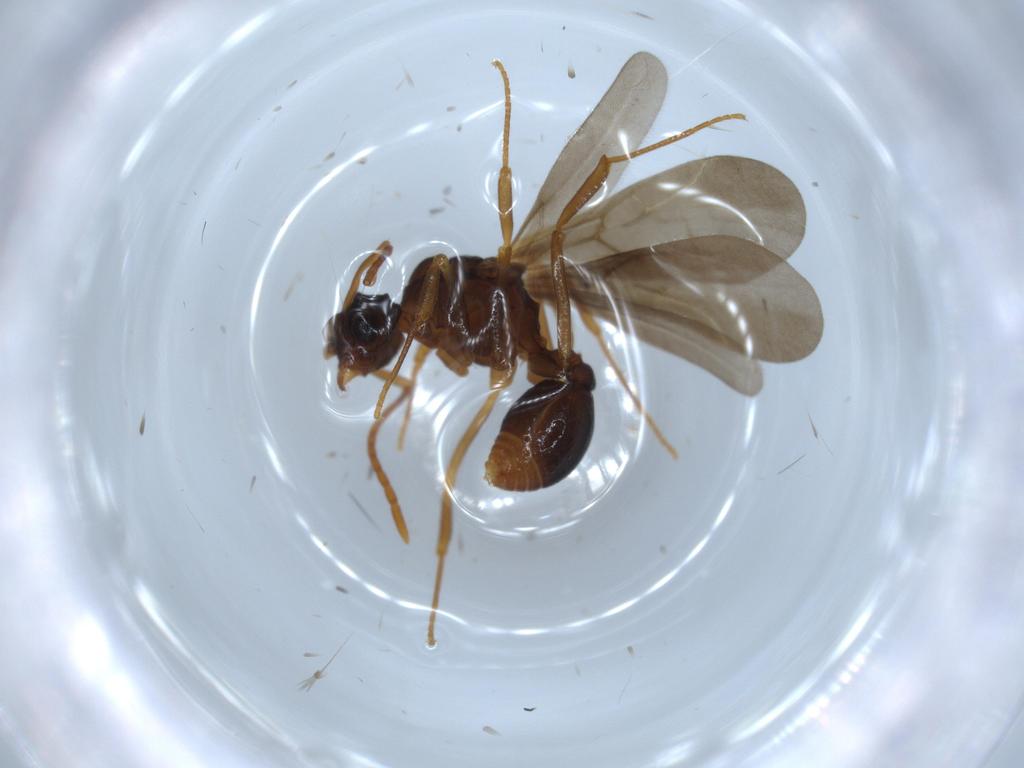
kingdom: Animalia
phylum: Arthropoda
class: Insecta
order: Hymenoptera
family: Formicidae
